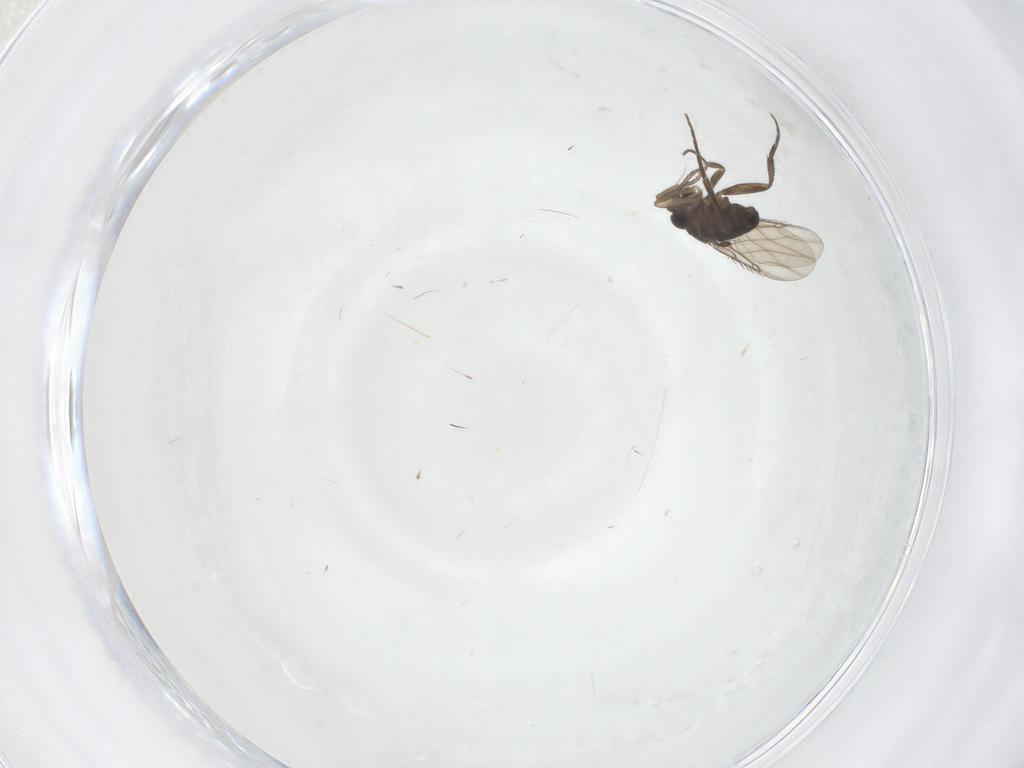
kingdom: Animalia
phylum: Arthropoda
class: Insecta
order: Diptera
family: Phoridae
